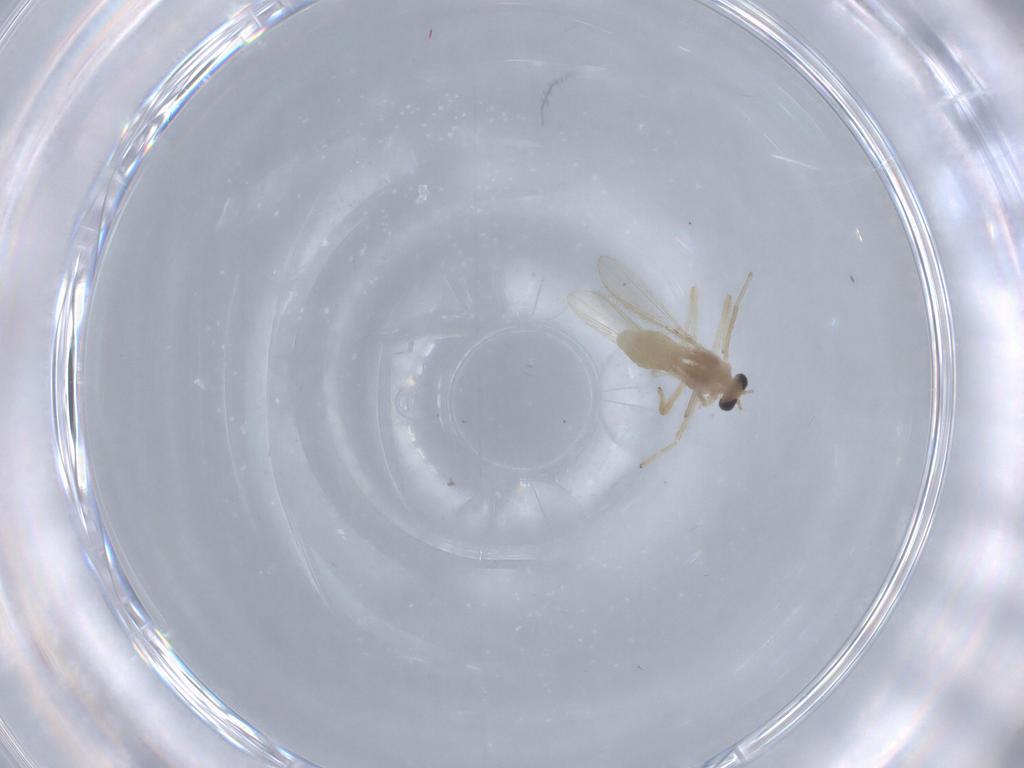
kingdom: Animalia
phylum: Arthropoda
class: Insecta
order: Diptera
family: Chironomidae
